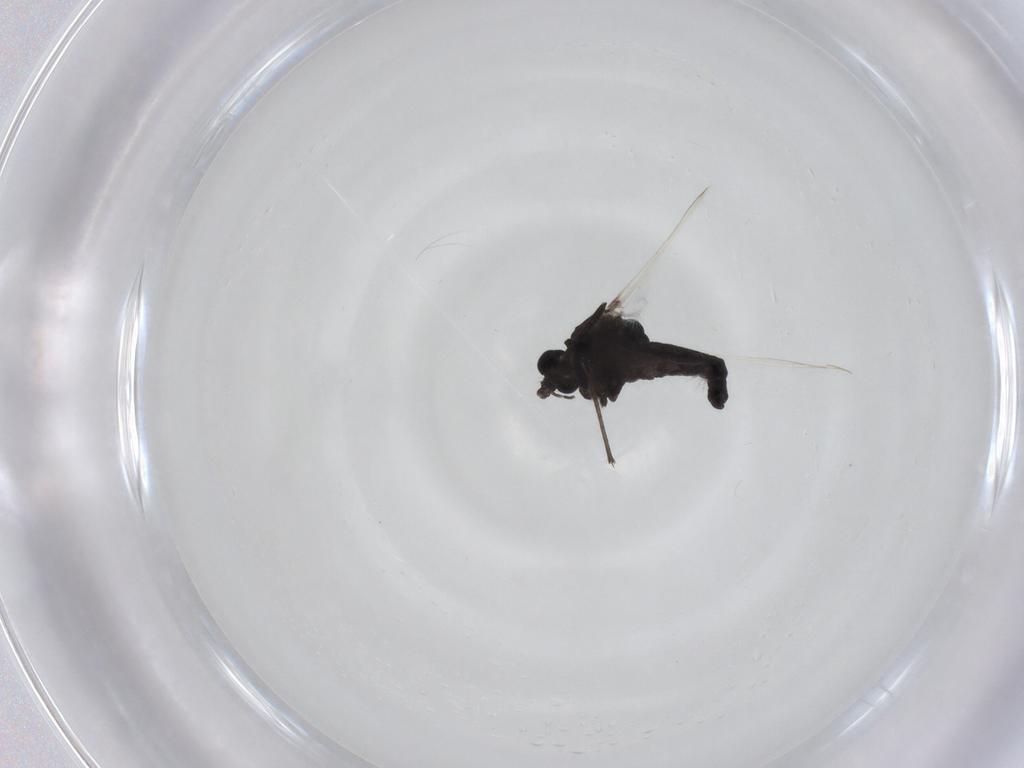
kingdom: Animalia
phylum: Arthropoda
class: Insecta
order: Diptera
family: Chironomidae
